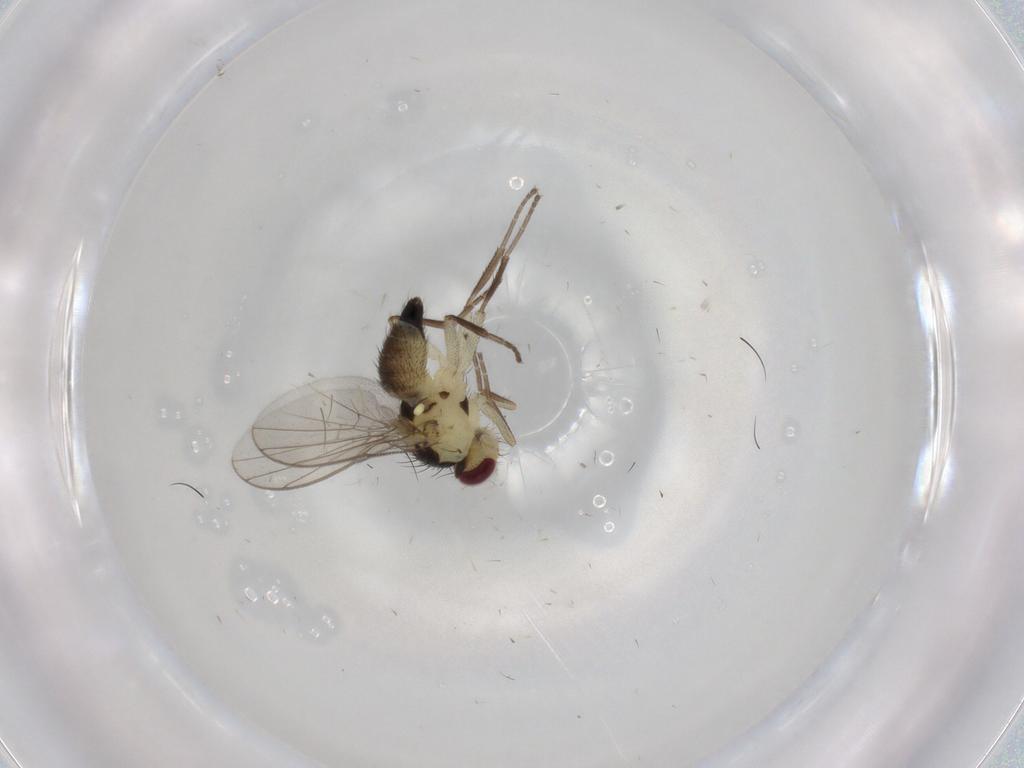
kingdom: Animalia
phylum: Arthropoda
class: Insecta
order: Diptera
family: Agromyzidae
